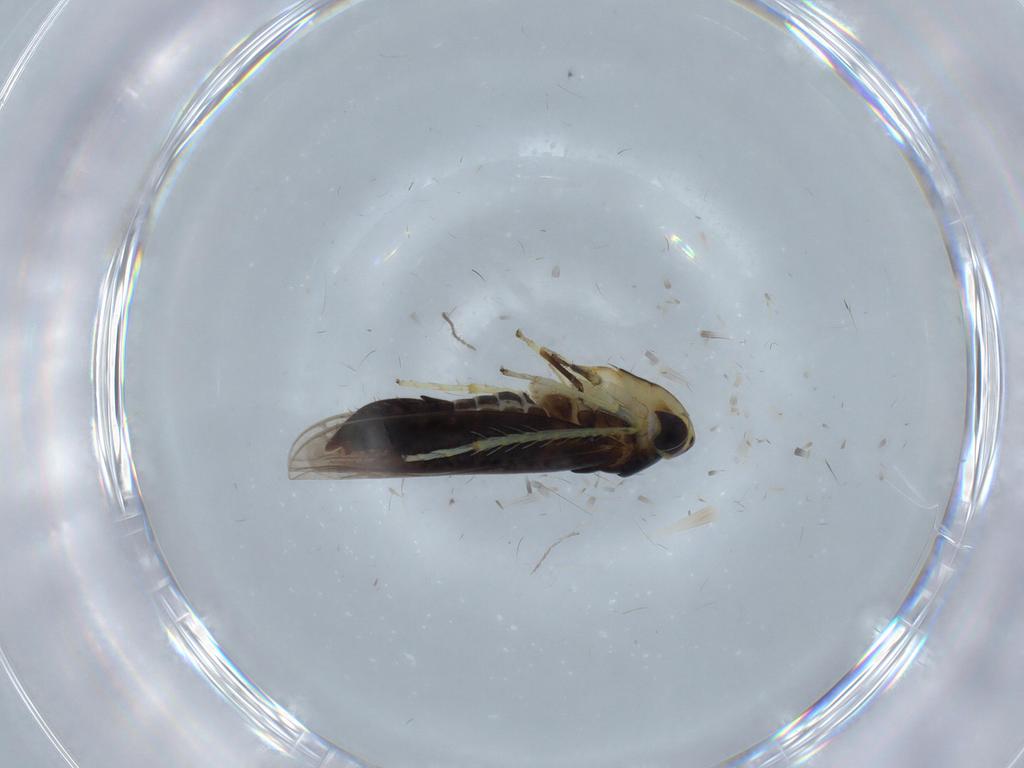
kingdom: Animalia
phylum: Arthropoda
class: Insecta
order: Hemiptera
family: Cicadellidae
